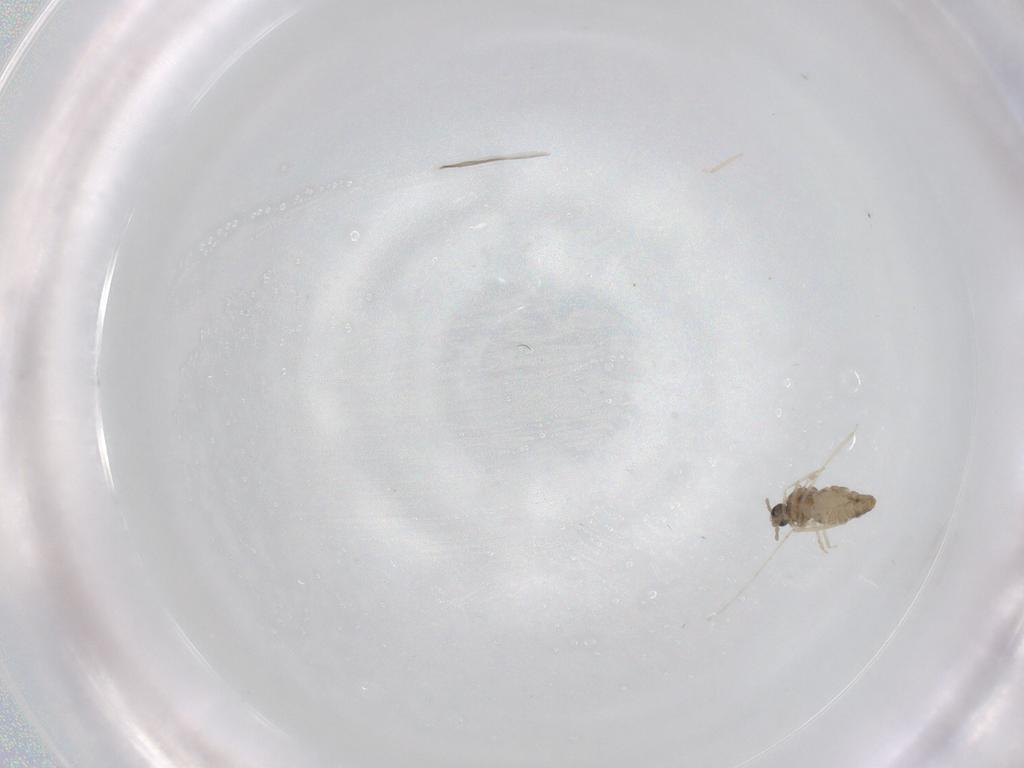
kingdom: Animalia
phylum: Arthropoda
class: Insecta
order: Diptera
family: Cecidomyiidae
